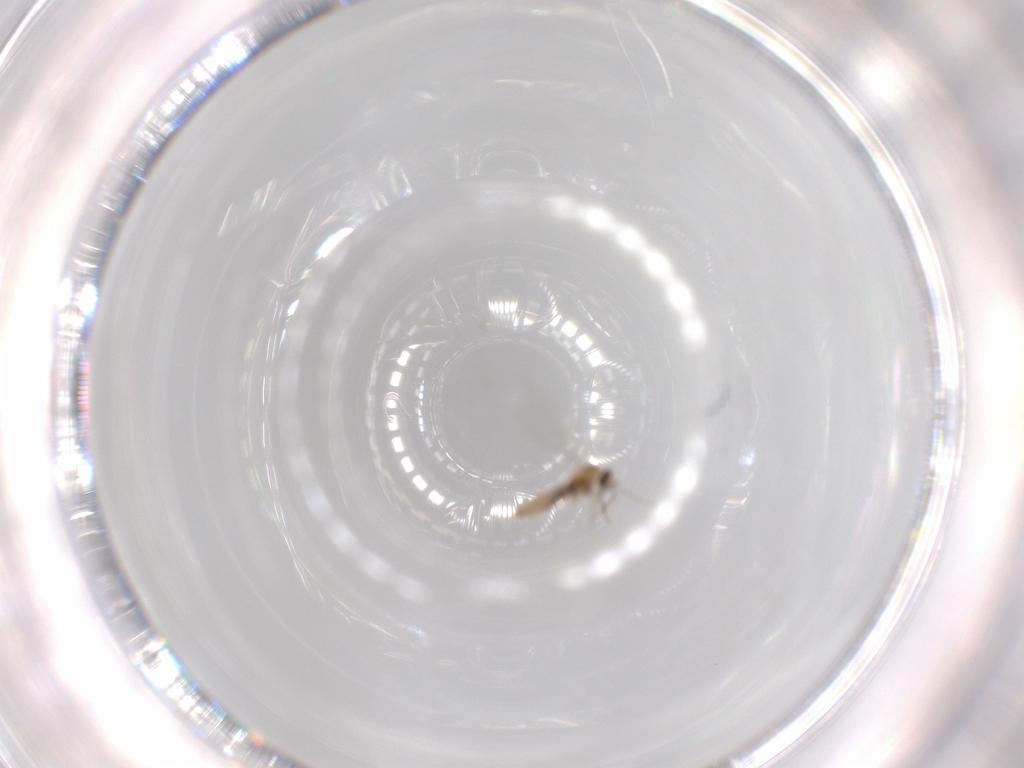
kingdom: Animalia
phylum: Arthropoda
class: Insecta
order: Diptera
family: Cecidomyiidae
